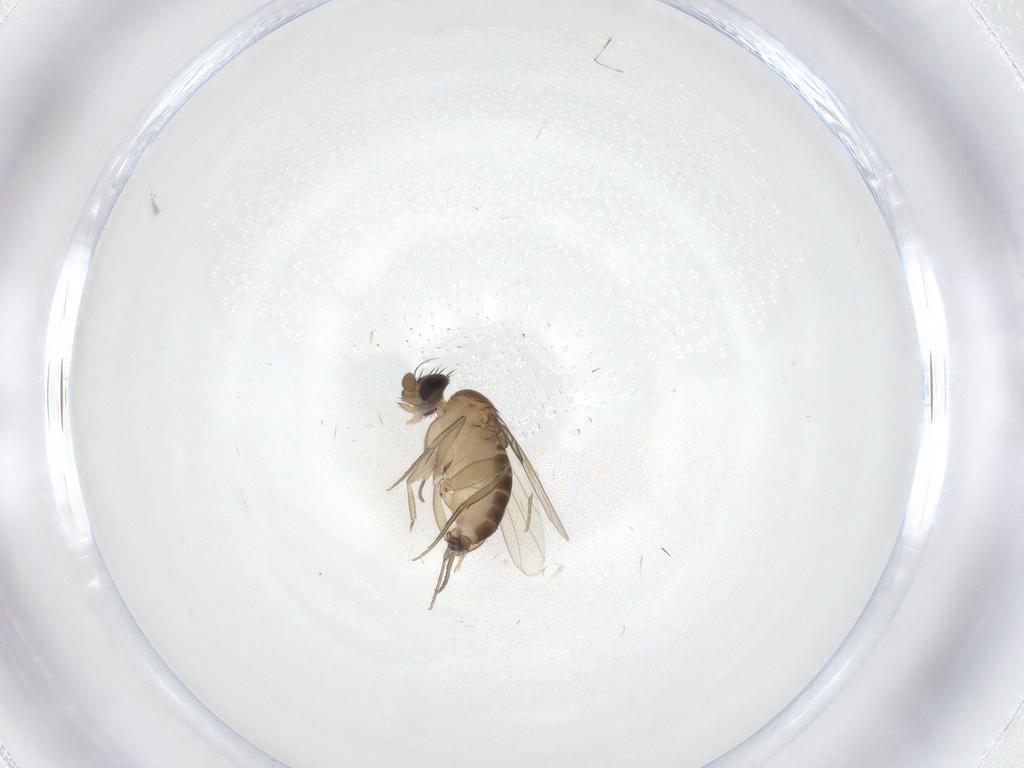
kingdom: Animalia
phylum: Arthropoda
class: Insecta
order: Diptera
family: Phoridae
